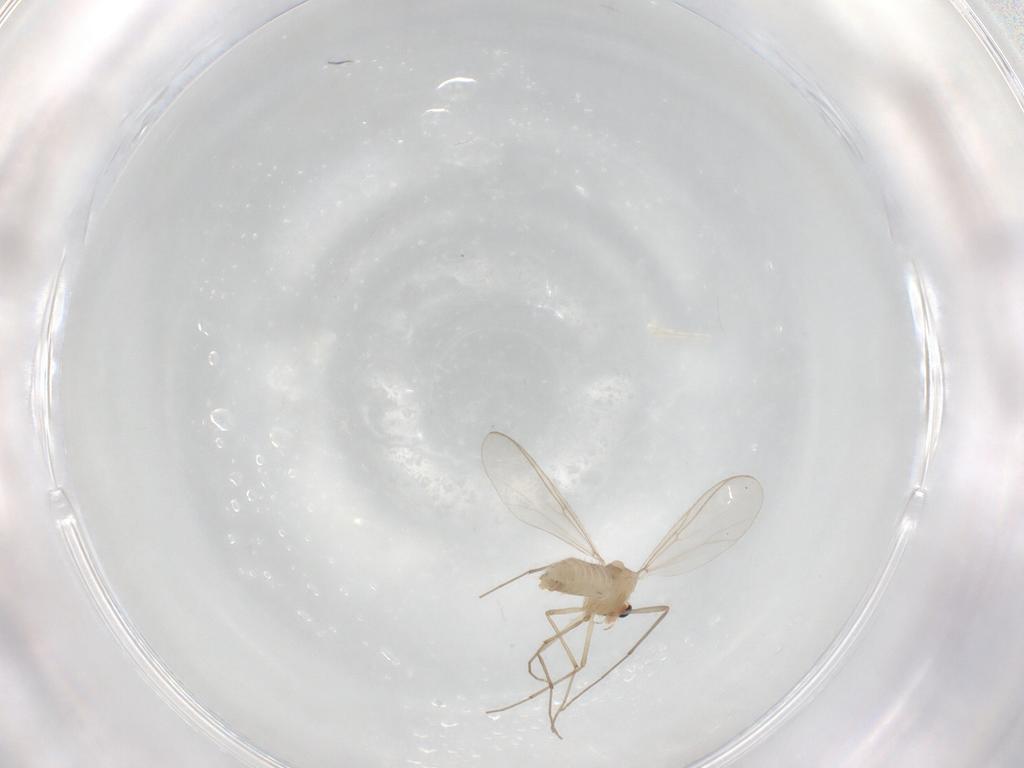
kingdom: Animalia
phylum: Arthropoda
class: Insecta
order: Diptera
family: Chironomidae
